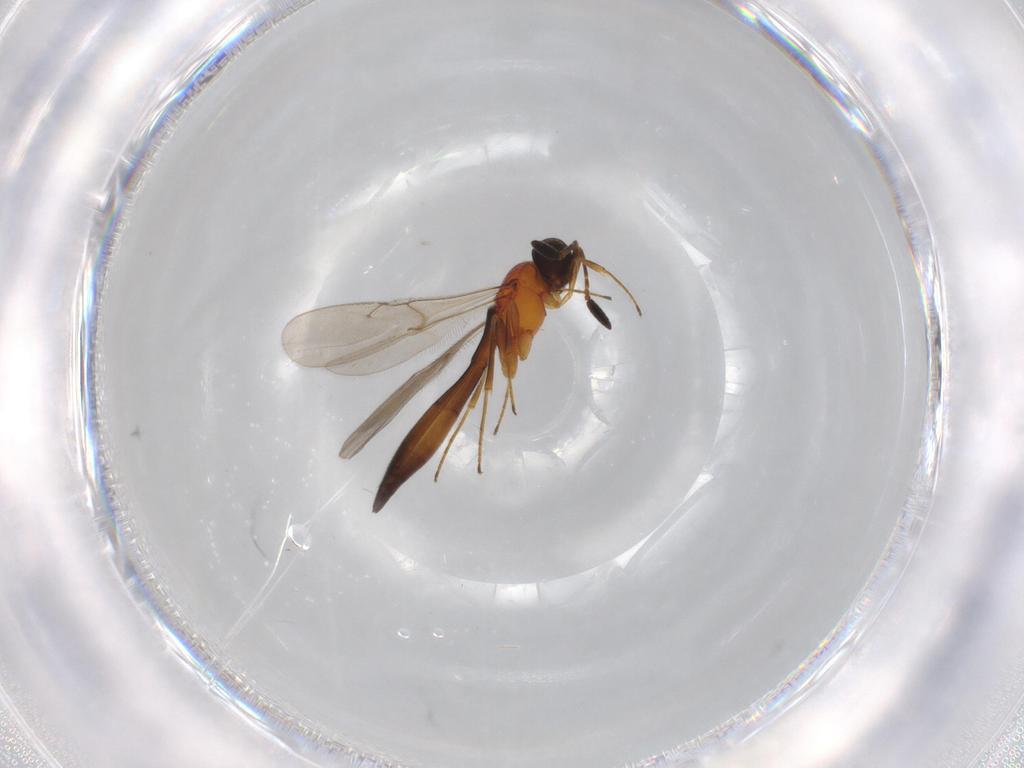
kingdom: Animalia
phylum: Arthropoda
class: Insecta
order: Hymenoptera
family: Scelionidae
